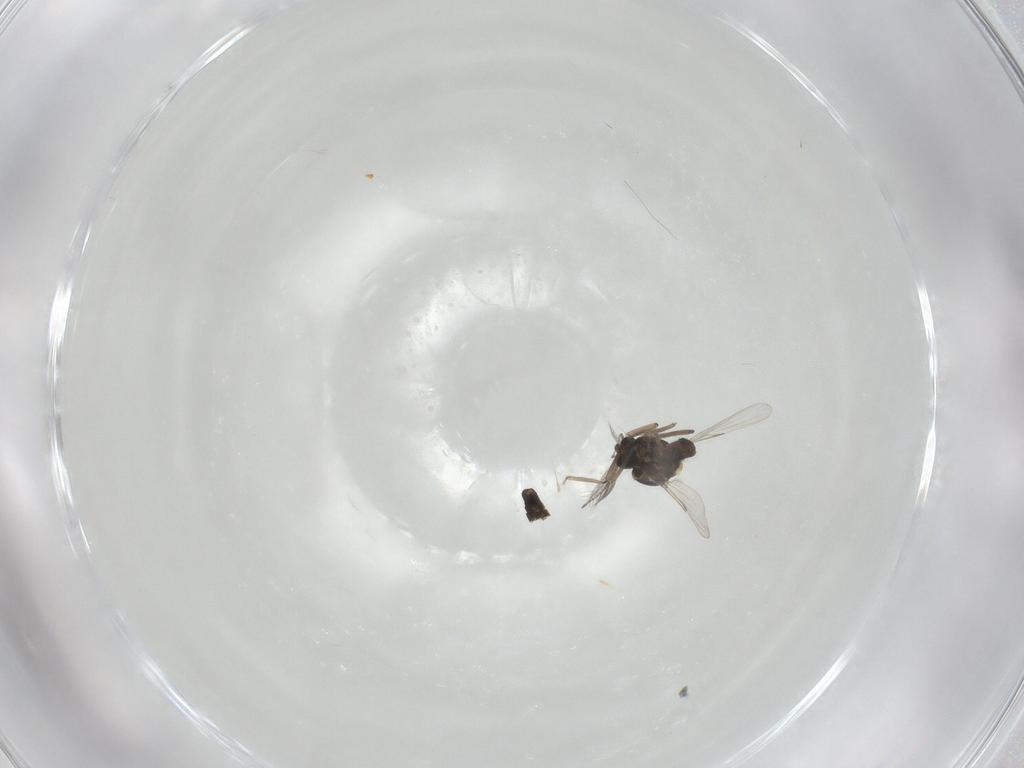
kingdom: Animalia
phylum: Arthropoda
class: Insecta
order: Diptera
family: Ceratopogonidae
